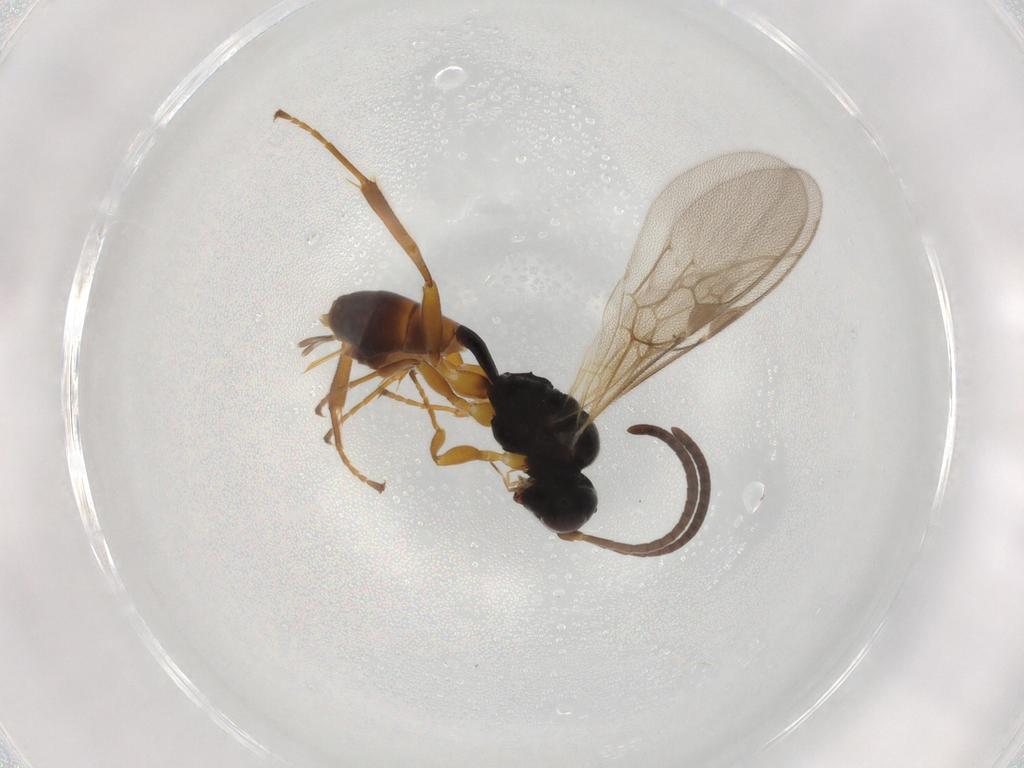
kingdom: Animalia
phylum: Arthropoda
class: Insecta
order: Hymenoptera
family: Ichneumonidae
